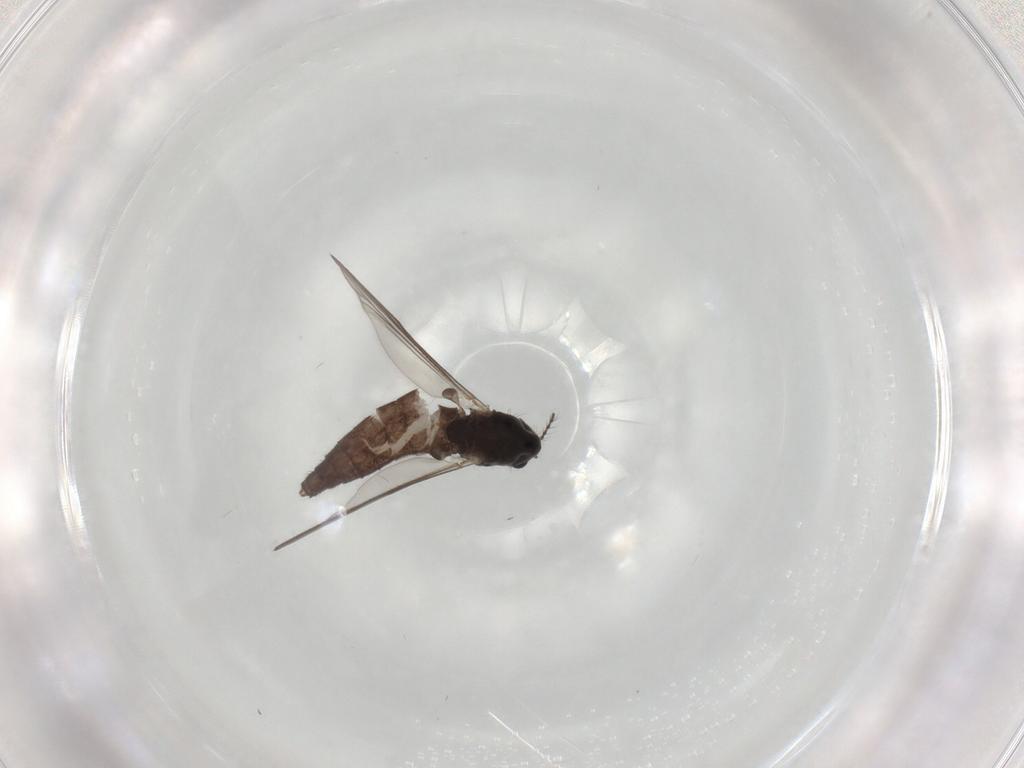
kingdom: Animalia
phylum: Arthropoda
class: Insecta
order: Diptera
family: Chironomidae
